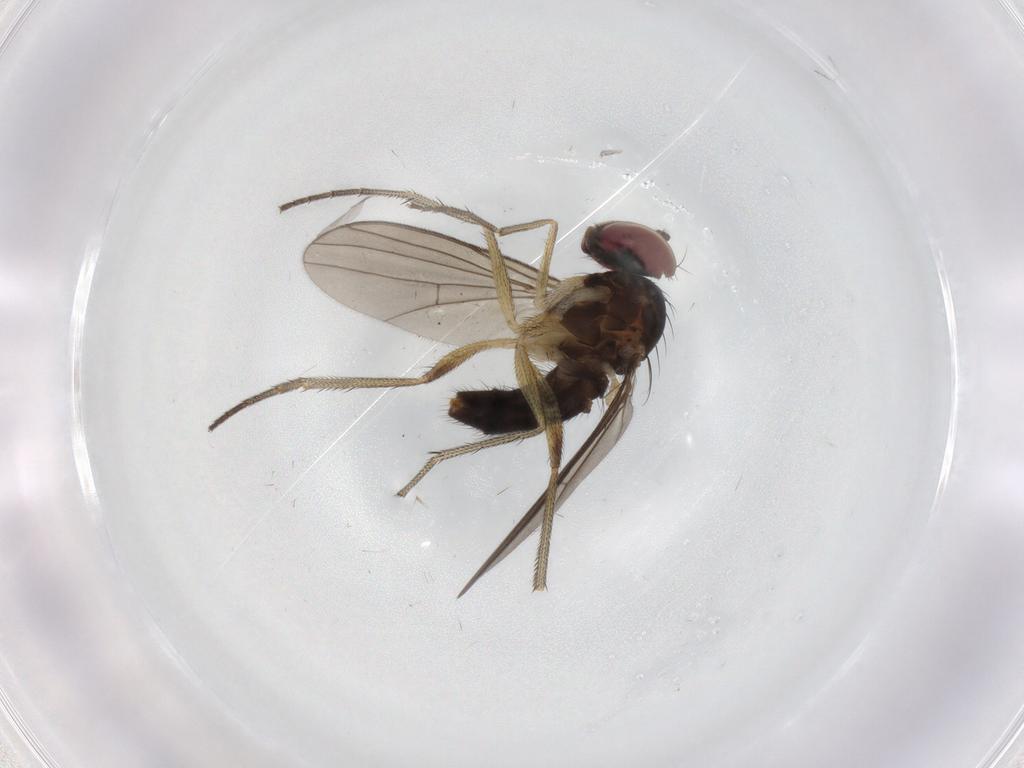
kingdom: Animalia
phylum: Arthropoda
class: Insecta
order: Diptera
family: Dolichopodidae
